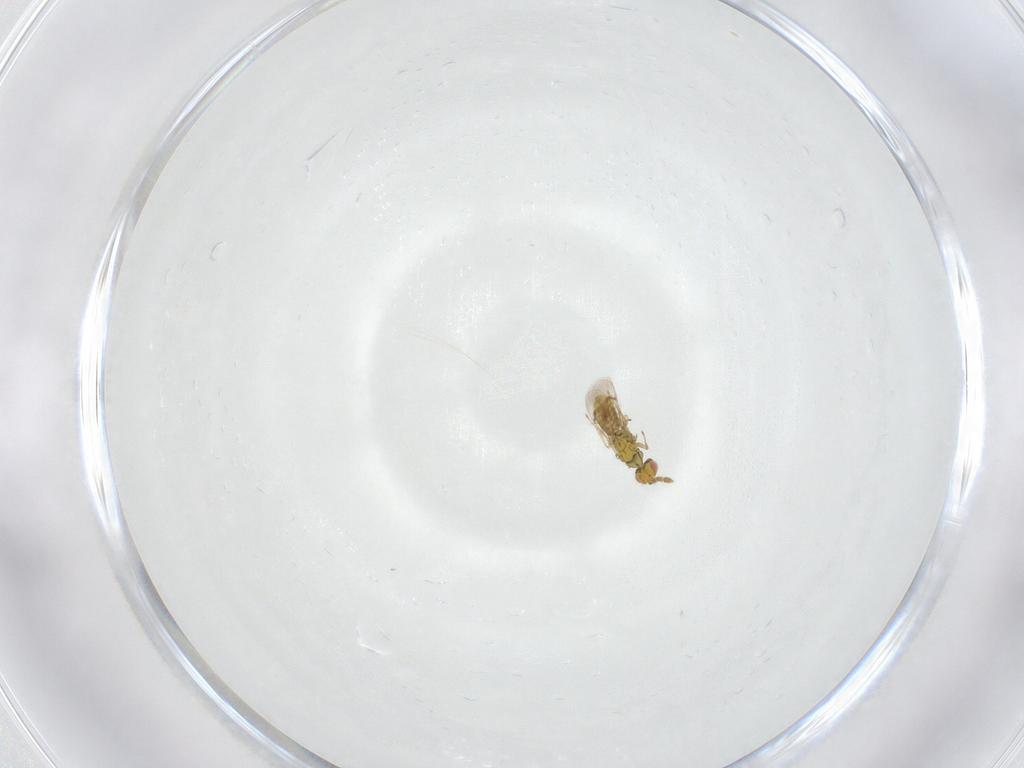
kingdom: Animalia
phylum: Arthropoda
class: Insecta
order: Hymenoptera
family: Eulophidae
